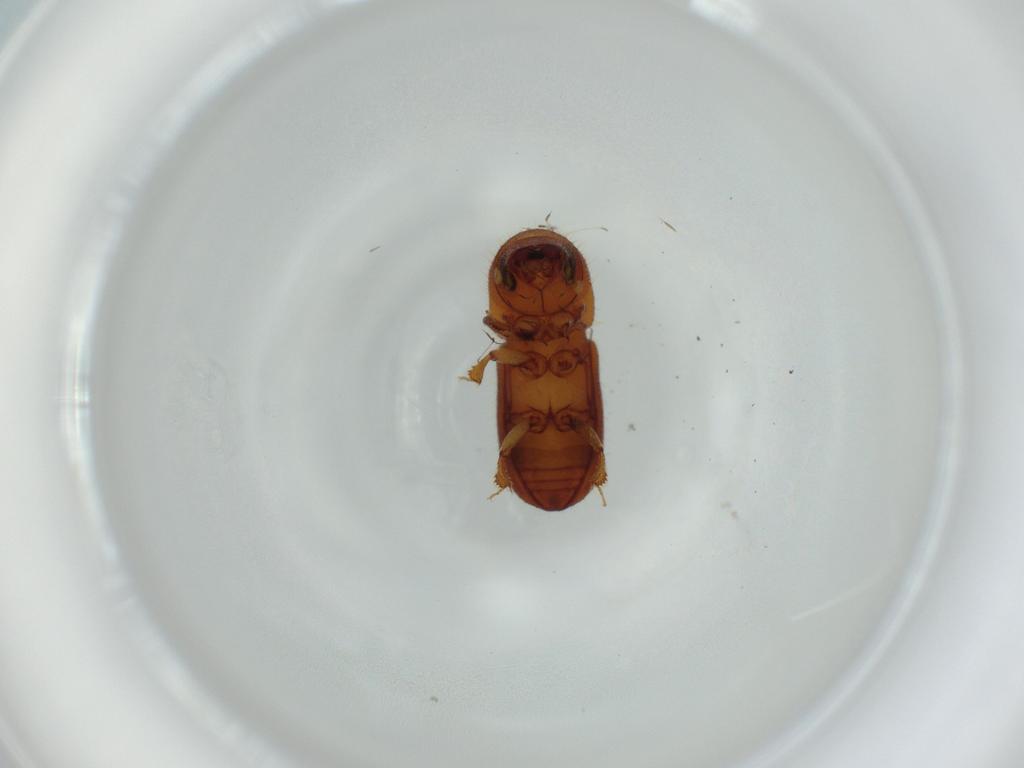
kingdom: Animalia
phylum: Arthropoda
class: Insecta
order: Coleoptera
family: Curculionidae
